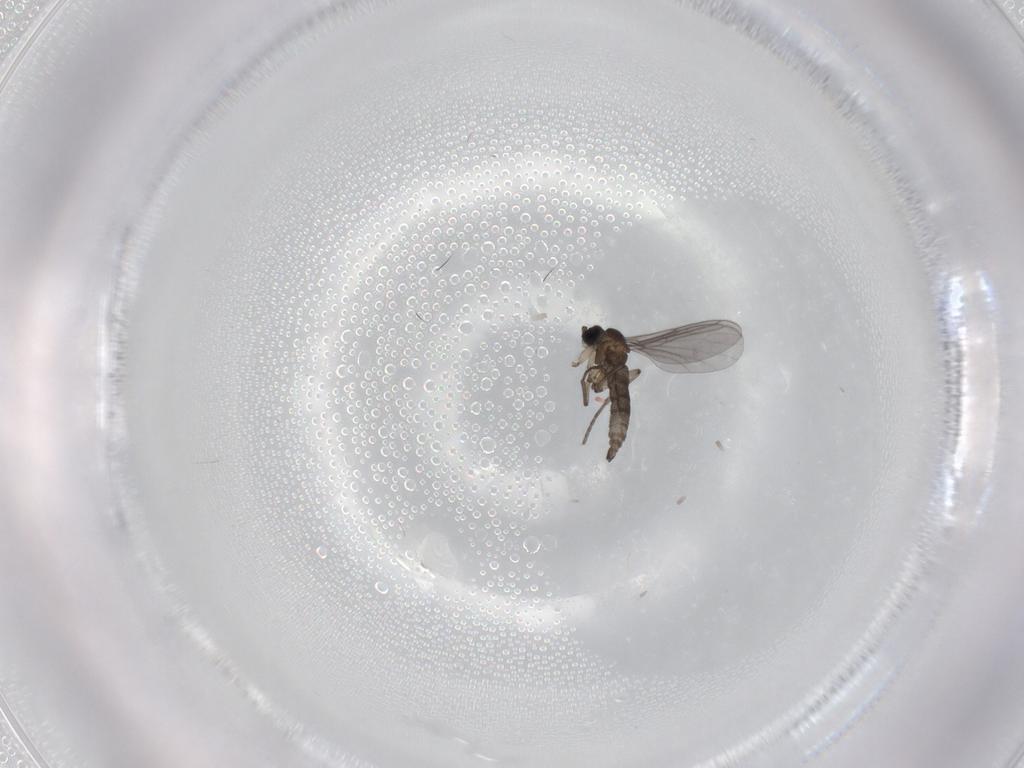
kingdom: Animalia
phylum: Arthropoda
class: Insecta
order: Diptera
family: Sciaridae
